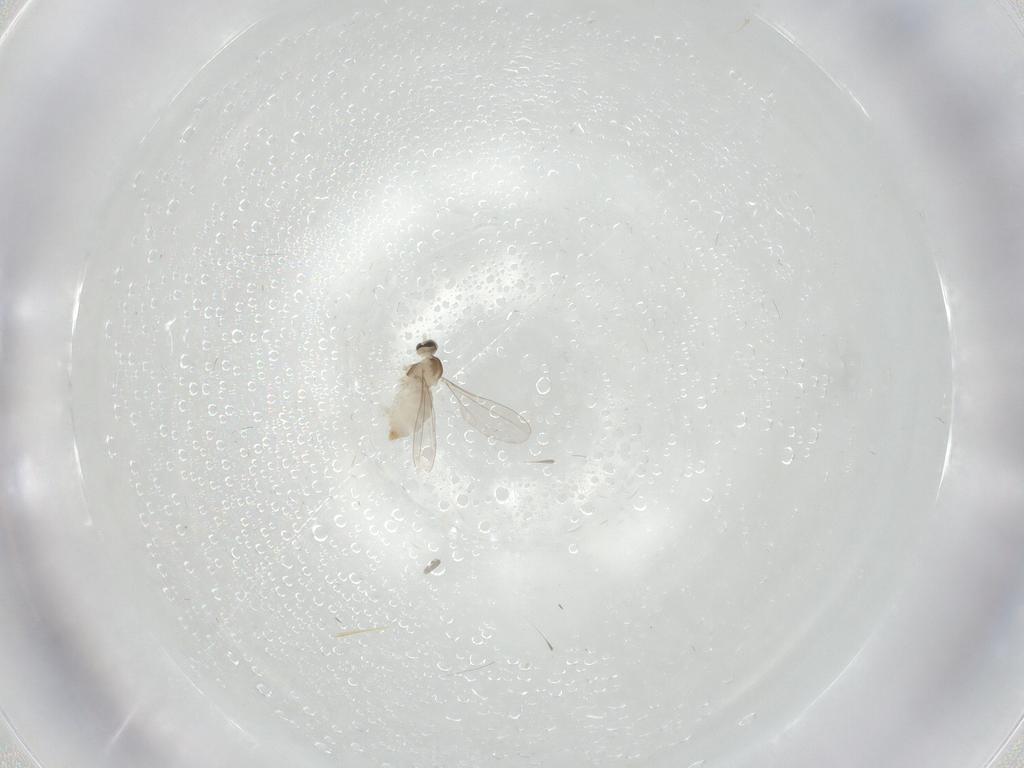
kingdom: Animalia
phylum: Arthropoda
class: Insecta
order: Diptera
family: Cecidomyiidae
